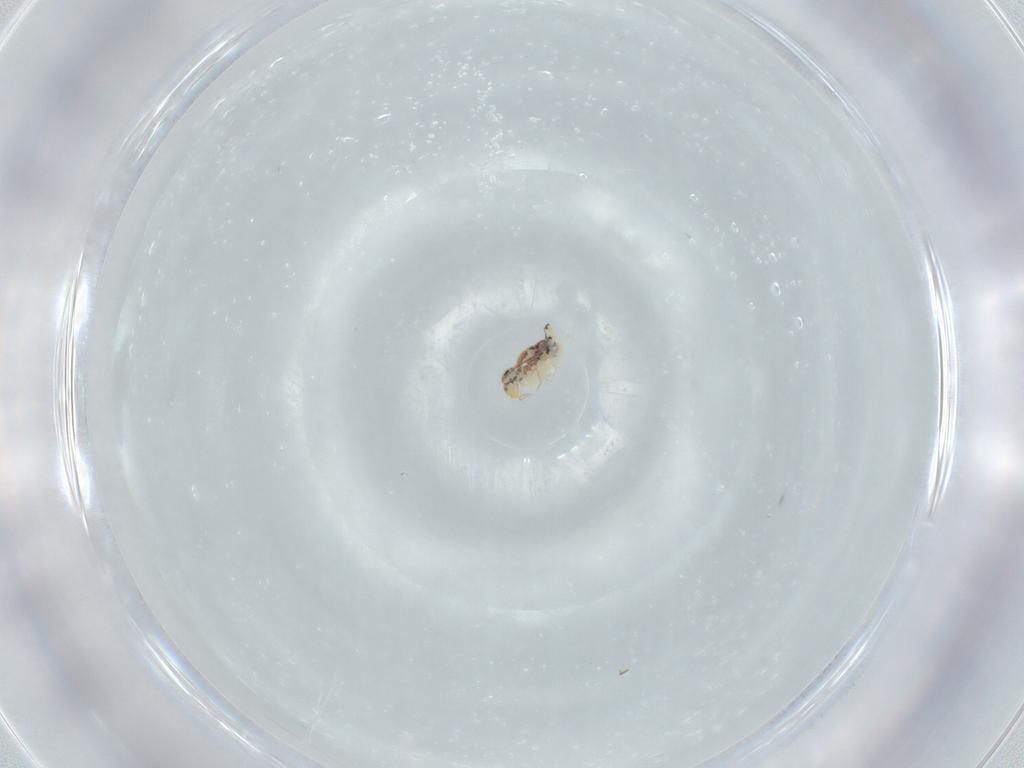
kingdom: Animalia
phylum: Arthropoda
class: Collembola
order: Symphypleona
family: Bourletiellidae
